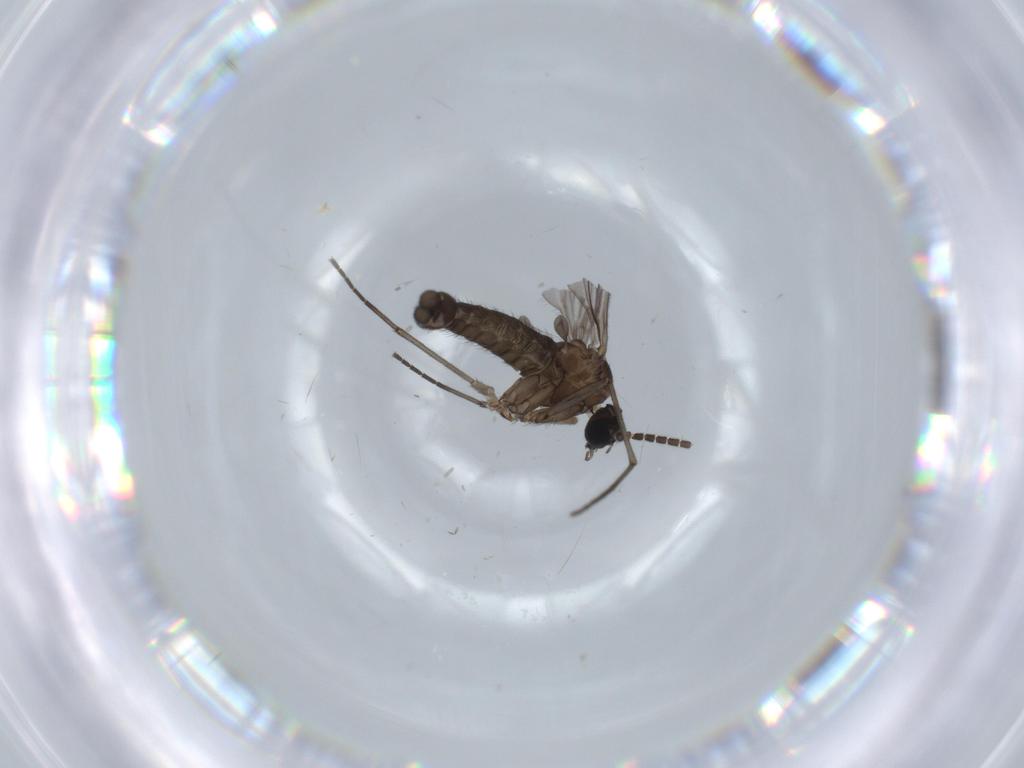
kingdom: Animalia
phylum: Arthropoda
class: Insecta
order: Diptera
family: Sciaridae
